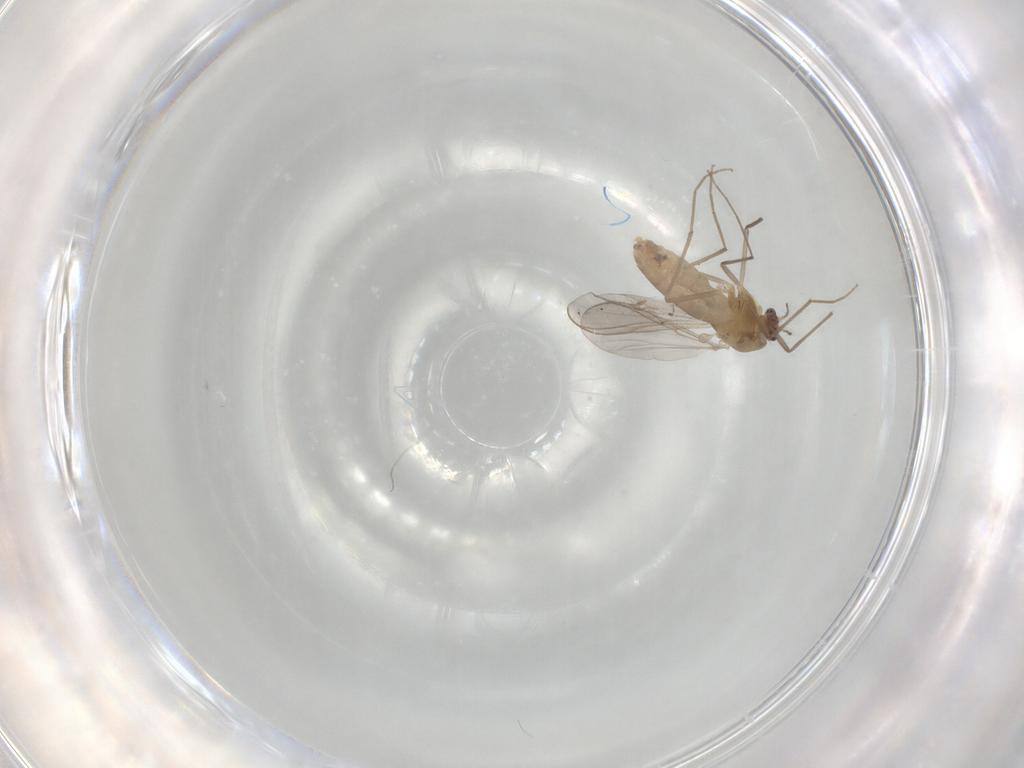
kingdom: Animalia
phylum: Arthropoda
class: Insecta
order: Diptera
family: Chironomidae
